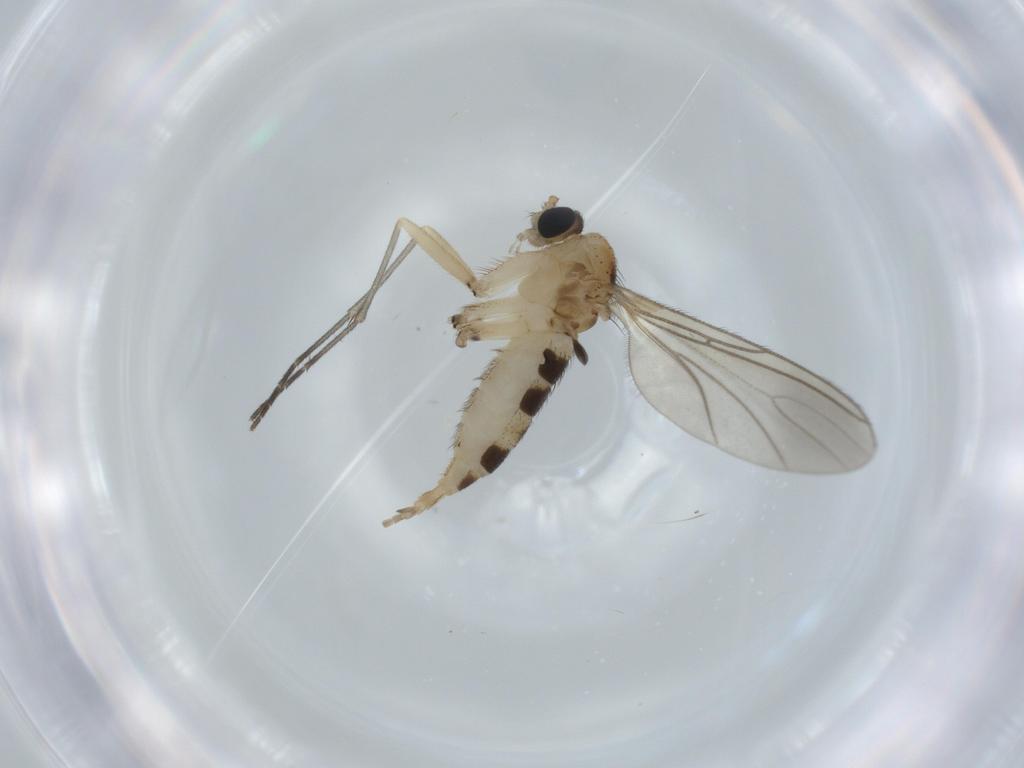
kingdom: Animalia
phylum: Arthropoda
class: Insecta
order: Diptera
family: Sciaridae
